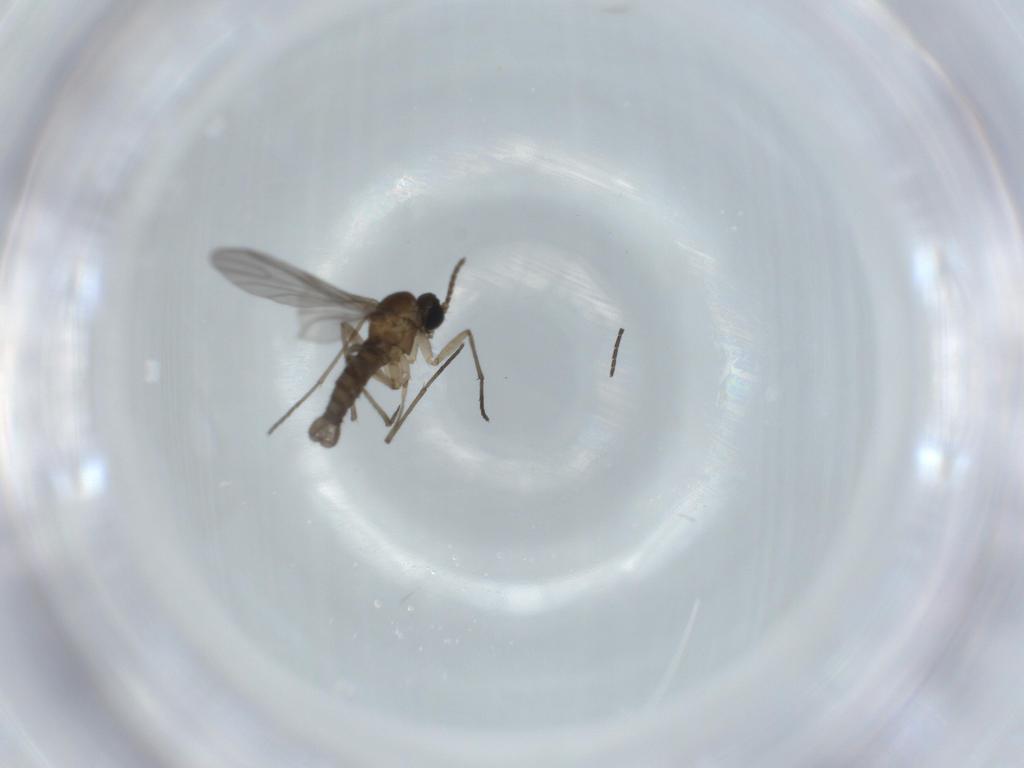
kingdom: Animalia
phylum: Arthropoda
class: Insecta
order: Diptera
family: Sciaridae
